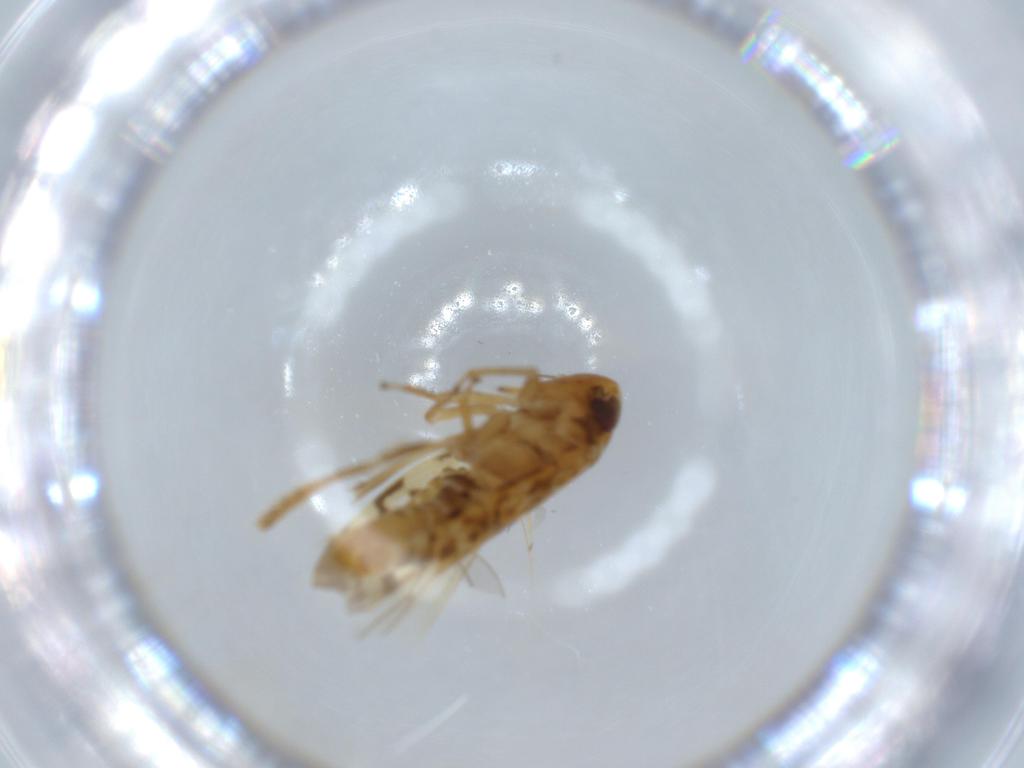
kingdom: Animalia
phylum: Arthropoda
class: Insecta
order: Hemiptera
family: Cicadellidae
